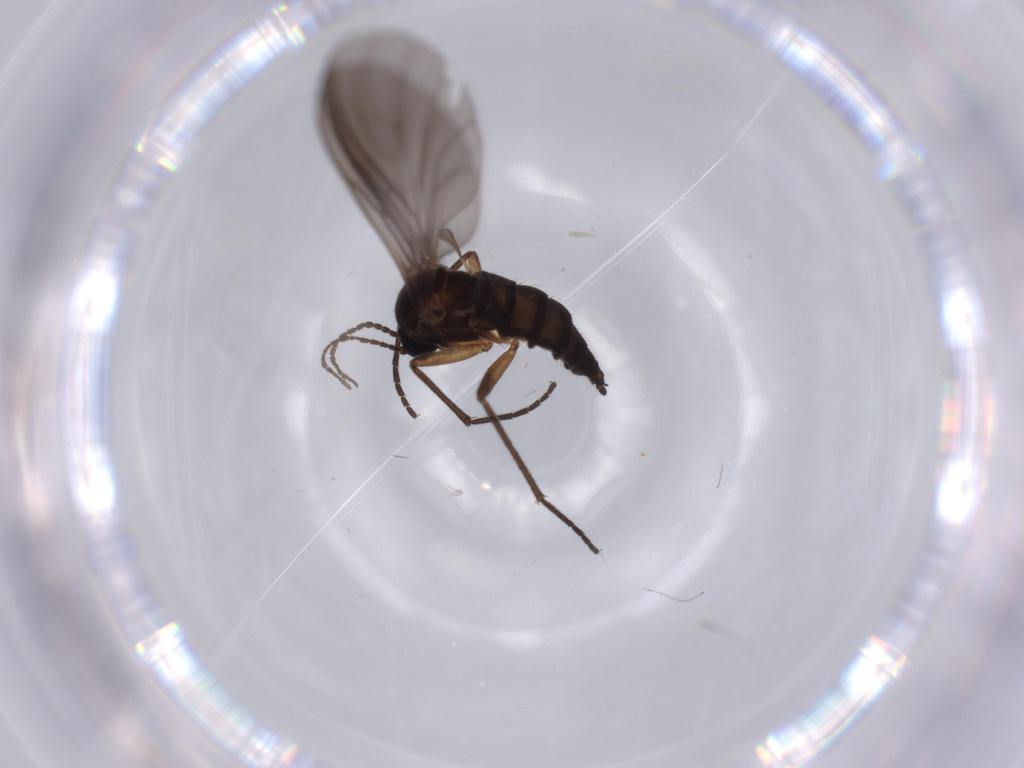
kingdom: Animalia
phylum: Arthropoda
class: Insecta
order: Diptera
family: Sciaridae
